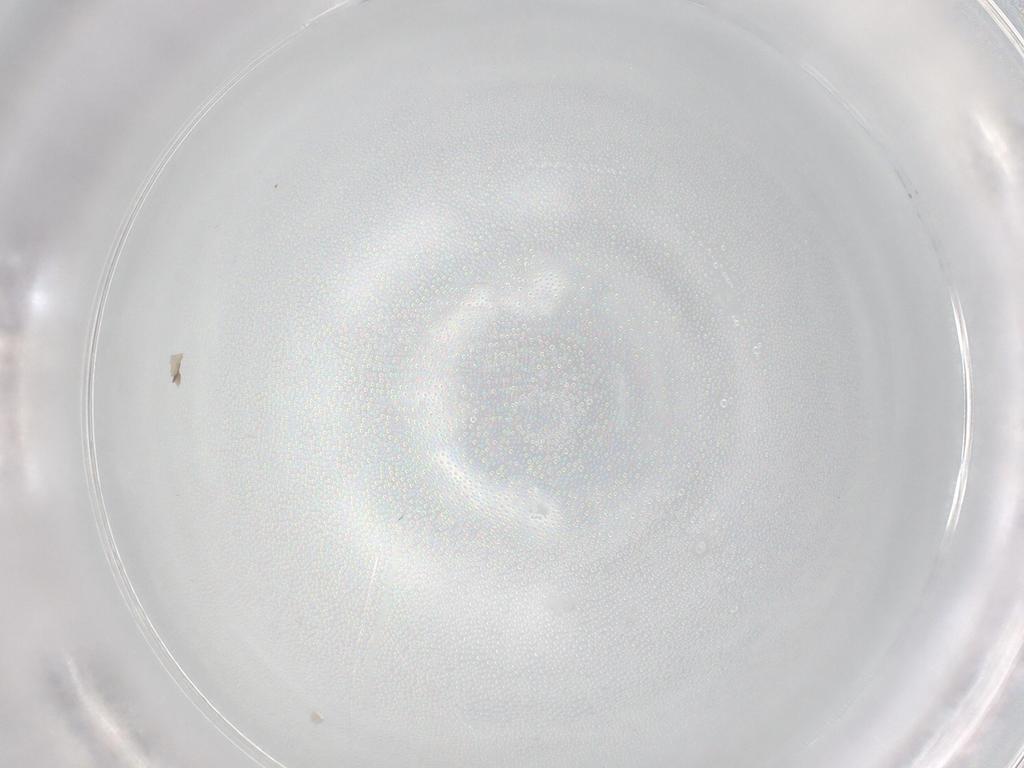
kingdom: Animalia
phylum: Arthropoda
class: Insecta
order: Diptera
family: Chironomidae
